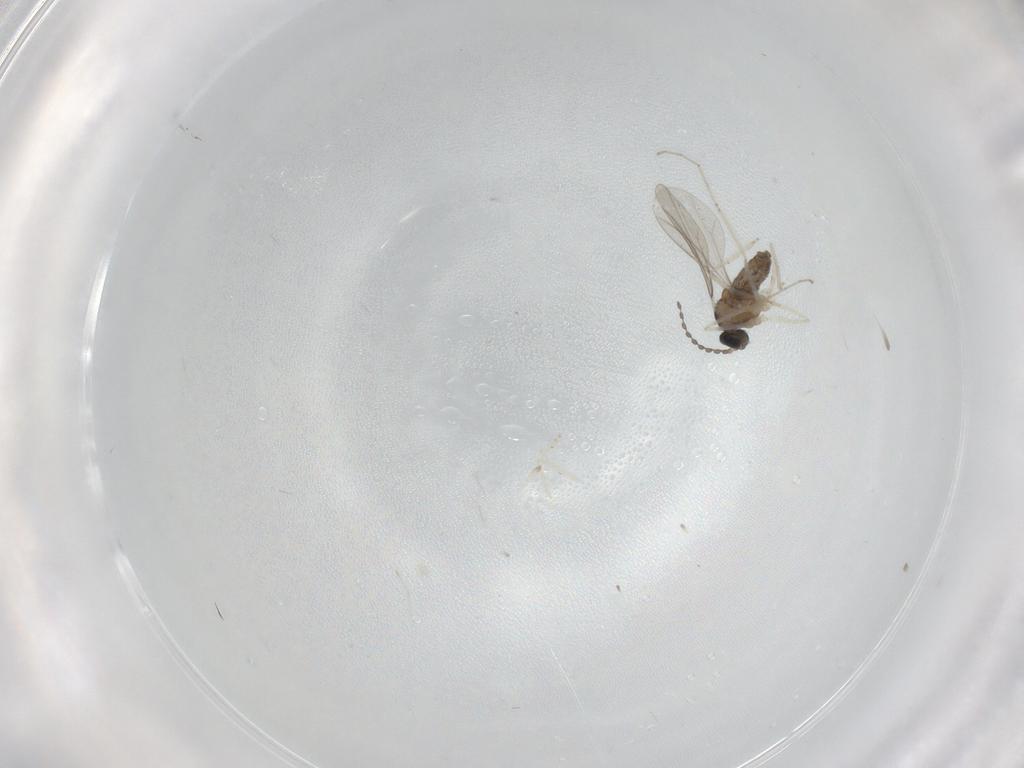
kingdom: Animalia
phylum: Arthropoda
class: Insecta
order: Diptera
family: Cecidomyiidae
